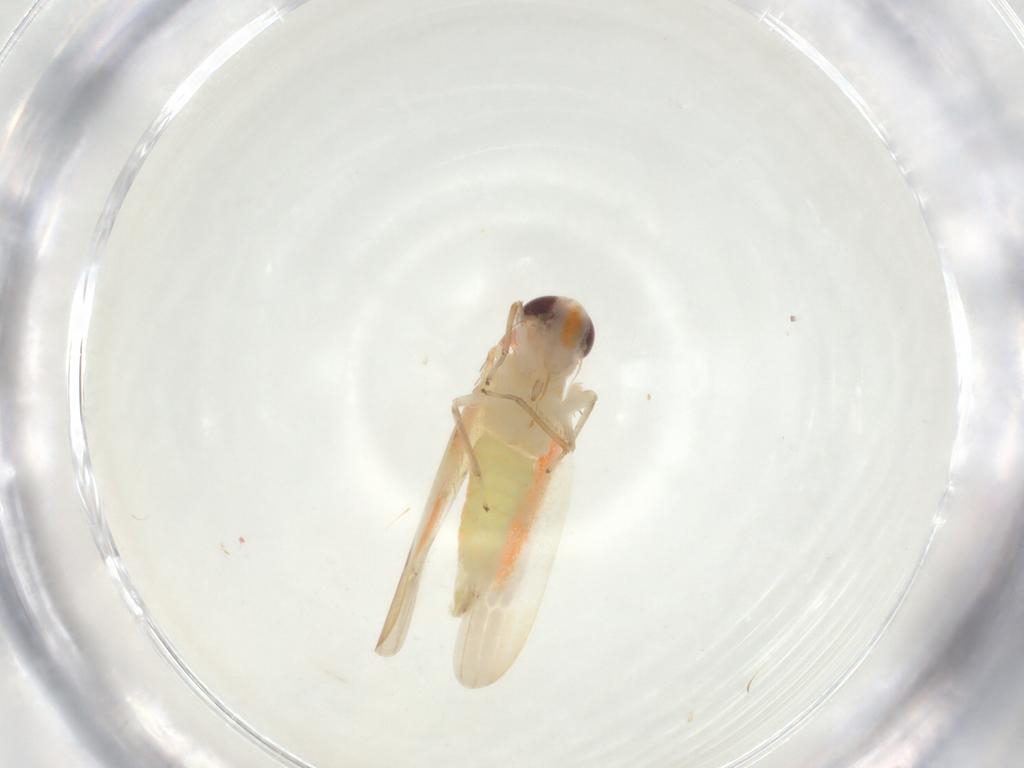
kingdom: Animalia
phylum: Arthropoda
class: Insecta
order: Hemiptera
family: Cicadellidae
